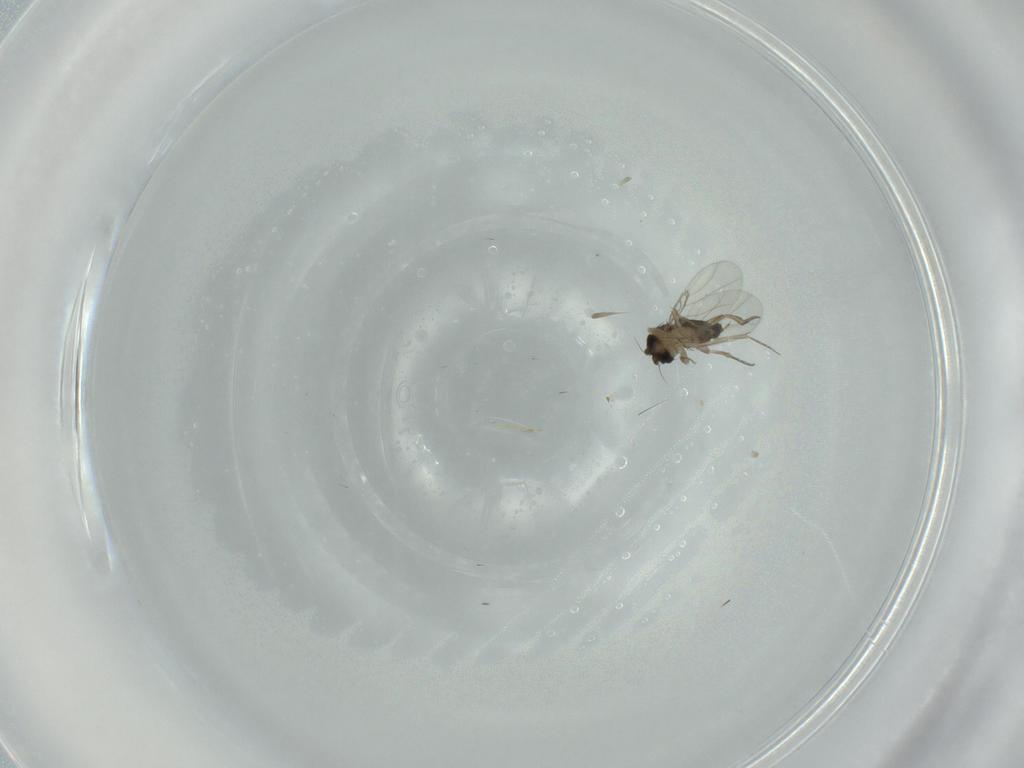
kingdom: Animalia
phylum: Arthropoda
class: Insecta
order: Diptera
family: Phoridae
